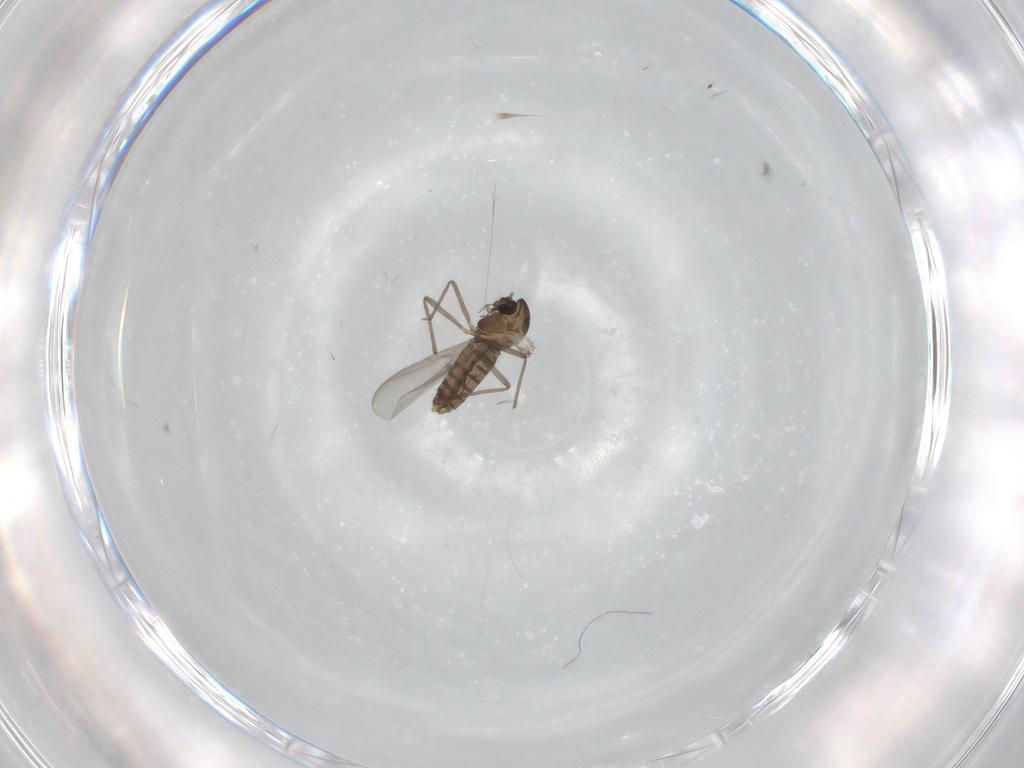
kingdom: Animalia
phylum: Arthropoda
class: Insecta
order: Diptera
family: Chironomidae
